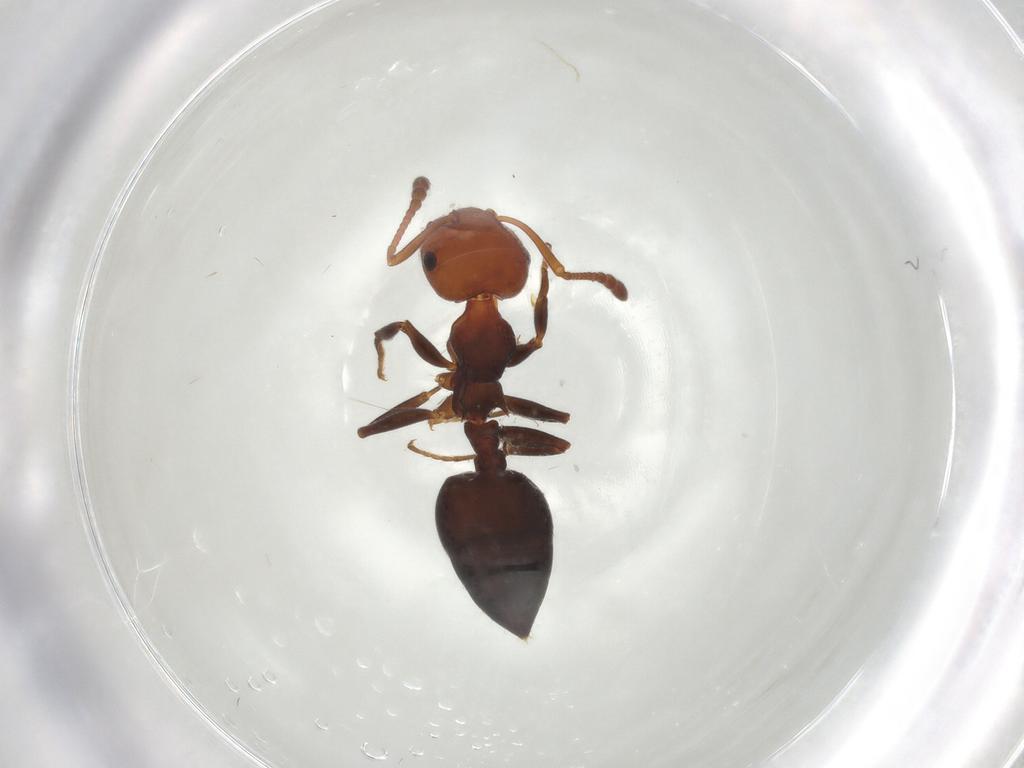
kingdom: Animalia
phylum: Arthropoda
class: Insecta
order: Hymenoptera
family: Formicidae
